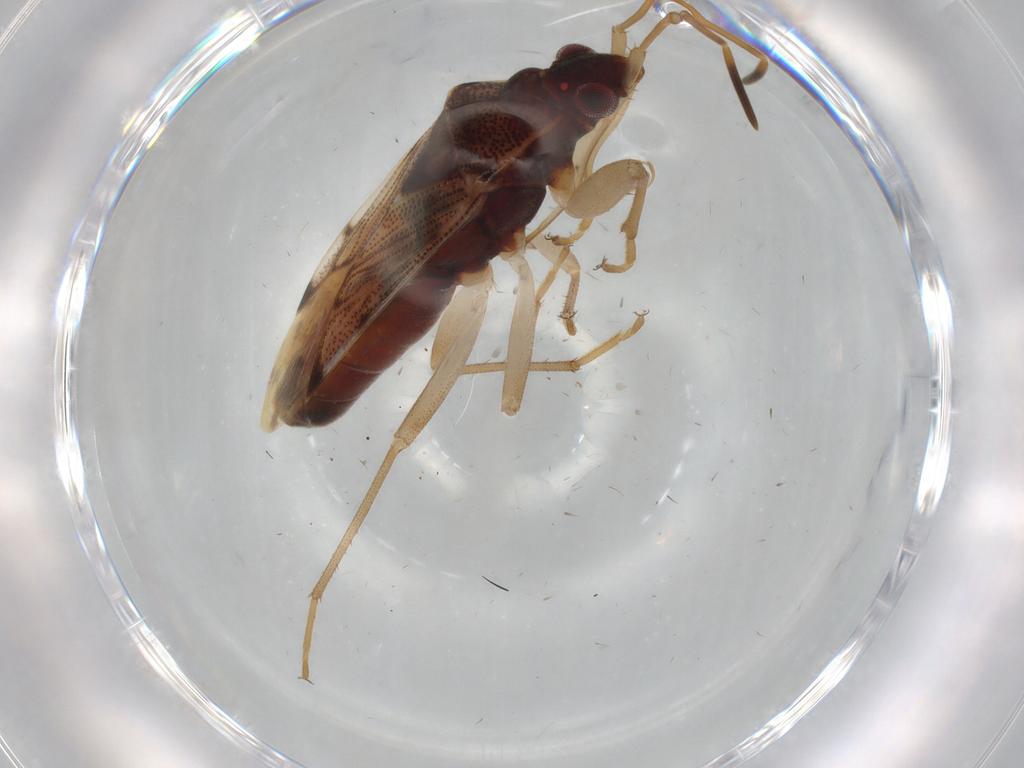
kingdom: Animalia
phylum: Arthropoda
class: Insecta
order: Hemiptera
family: Rhyparochromidae
